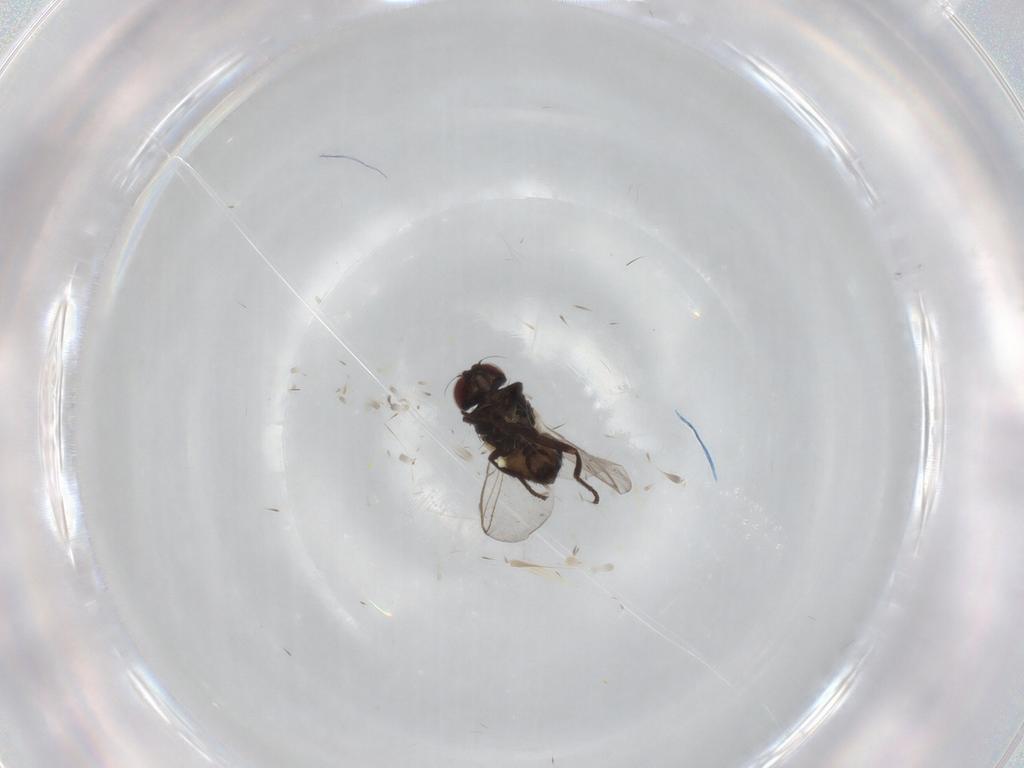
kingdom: Animalia
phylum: Arthropoda
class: Insecta
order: Diptera
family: Agromyzidae
